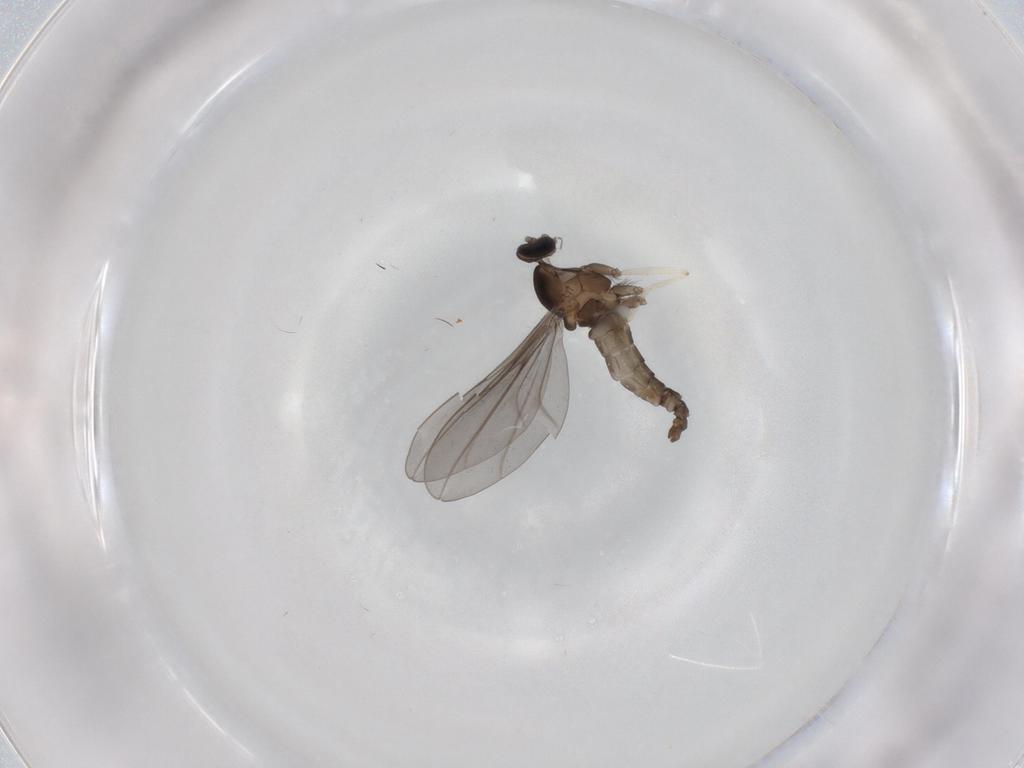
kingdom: Animalia
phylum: Arthropoda
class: Insecta
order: Diptera
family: Cecidomyiidae
